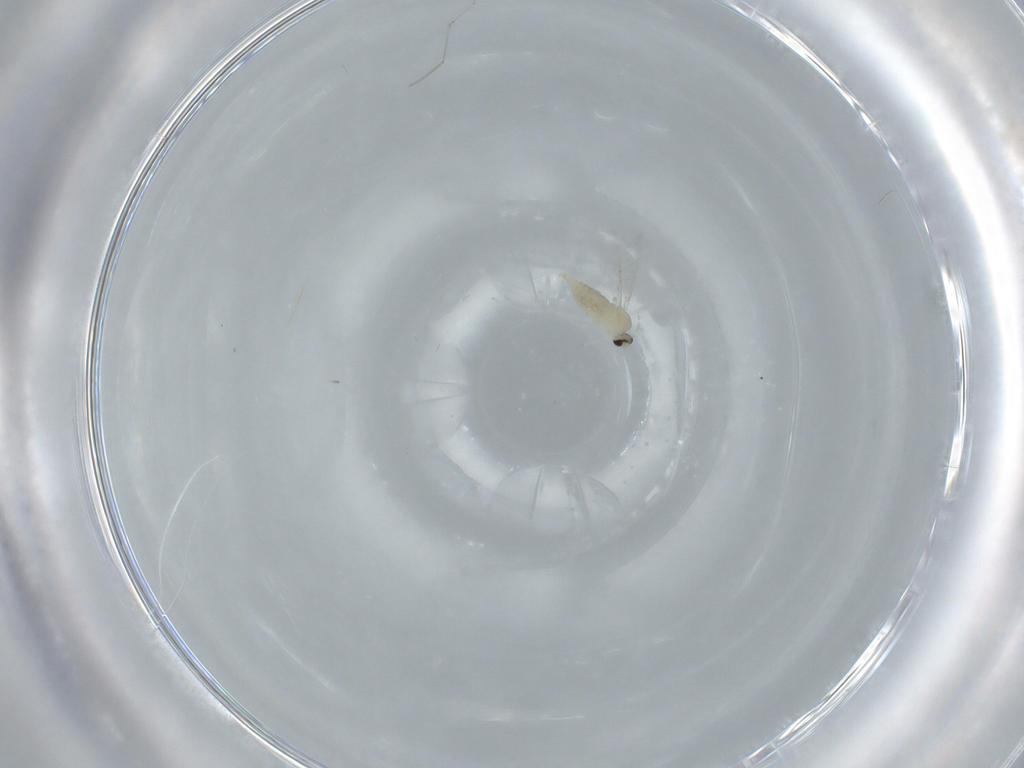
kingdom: Animalia
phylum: Arthropoda
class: Insecta
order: Diptera
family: Cecidomyiidae
